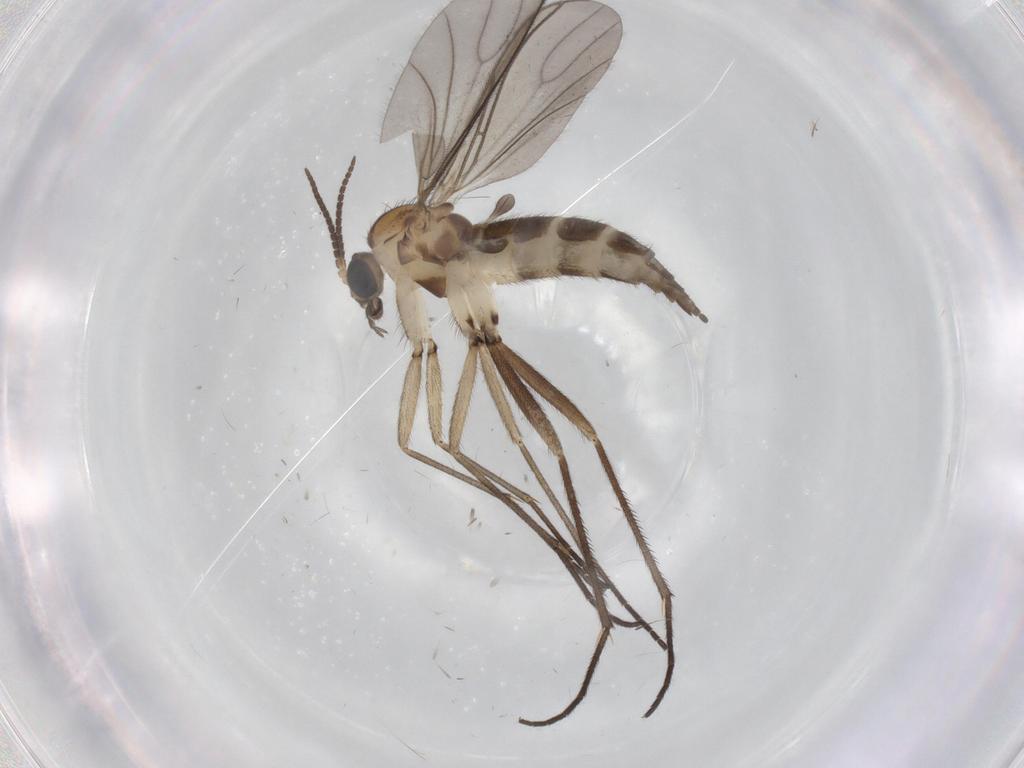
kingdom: Animalia
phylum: Arthropoda
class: Insecta
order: Diptera
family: Sciaridae
